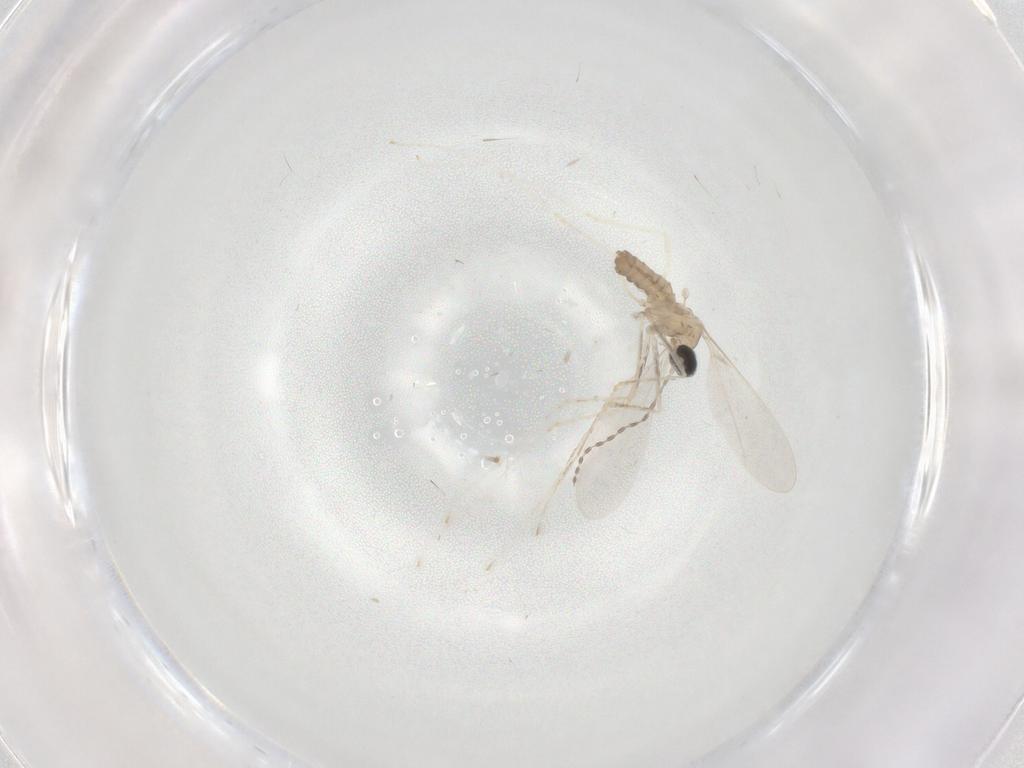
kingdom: Animalia
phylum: Arthropoda
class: Insecta
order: Diptera
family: Cecidomyiidae
